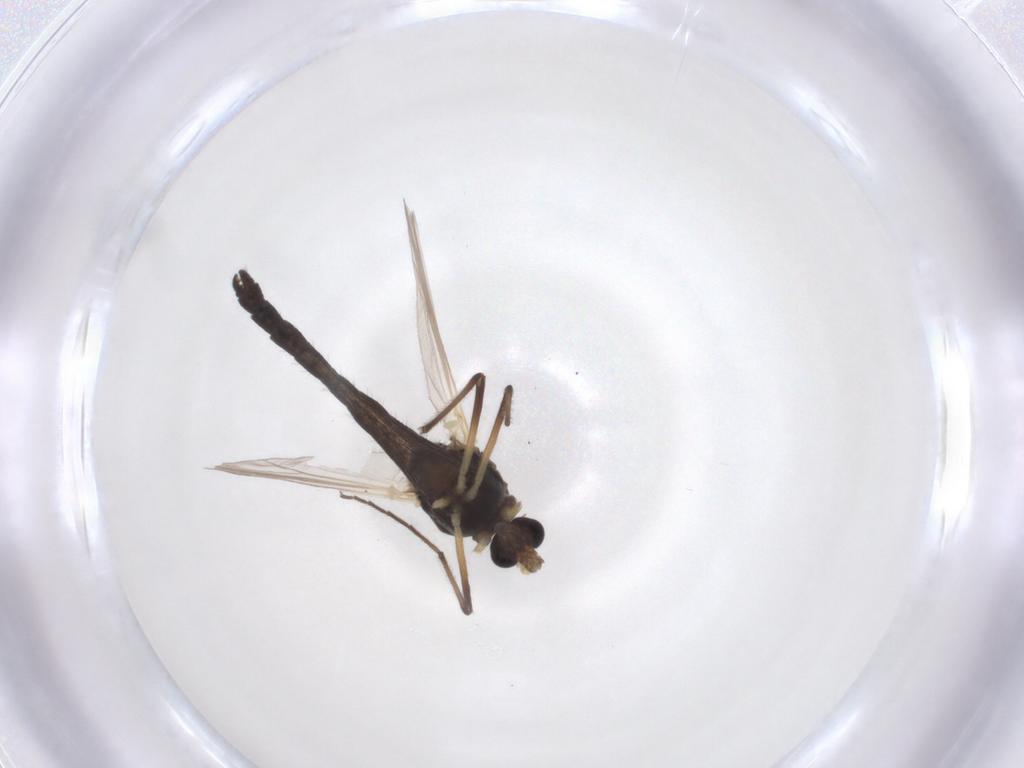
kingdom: Animalia
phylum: Arthropoda
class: Insecta
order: Diptera
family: Chironomidae
